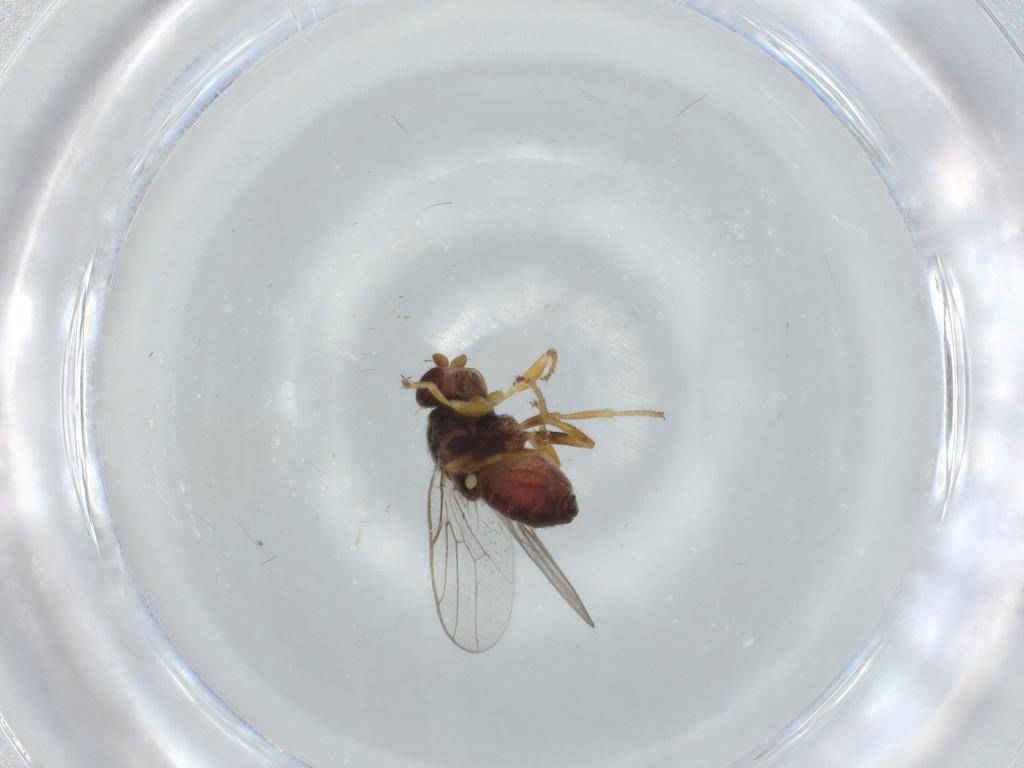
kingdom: Animalia
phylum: Arthropoda
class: Insecta
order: Diptera
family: Chloropidae
